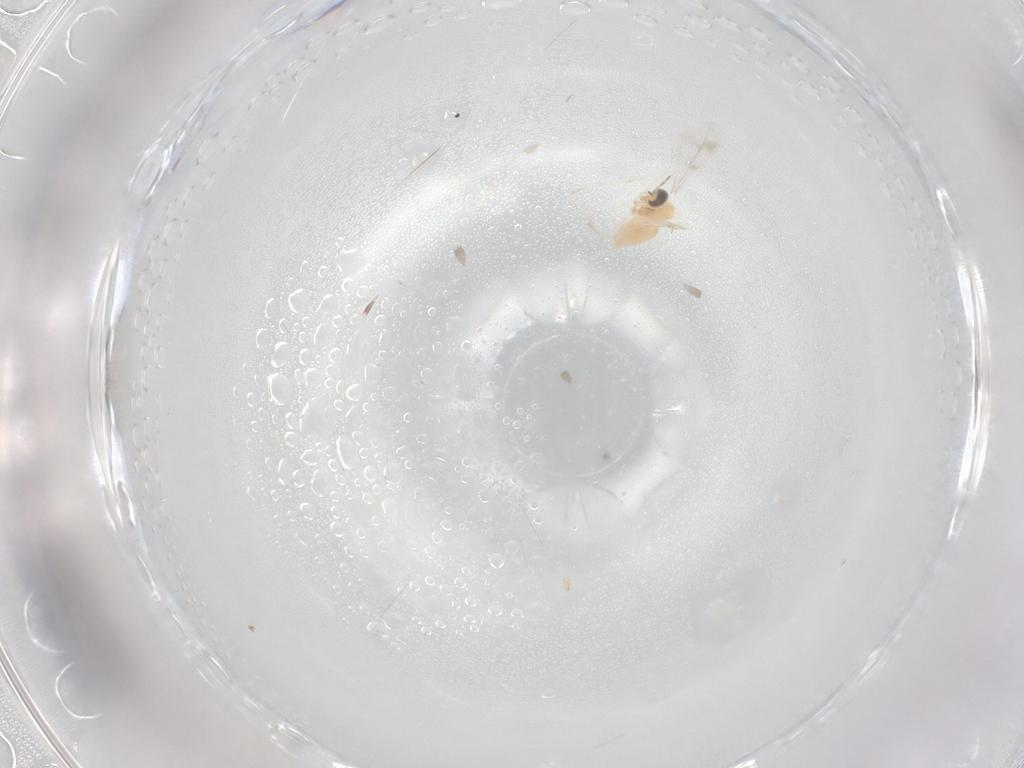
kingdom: Animalia
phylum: Arthropoda
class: Insecta
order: Diptera
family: Cecidomyiidae
